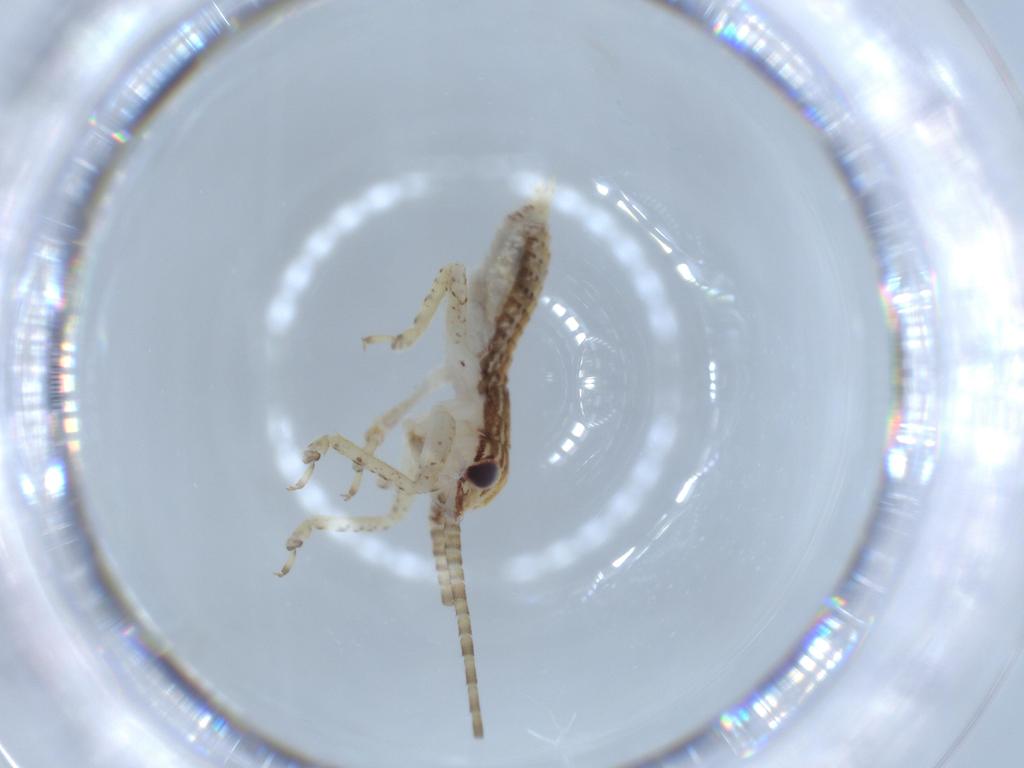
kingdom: Animalia
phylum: Arthropoda
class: Insecta
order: Orthoptera
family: Gryllidae
